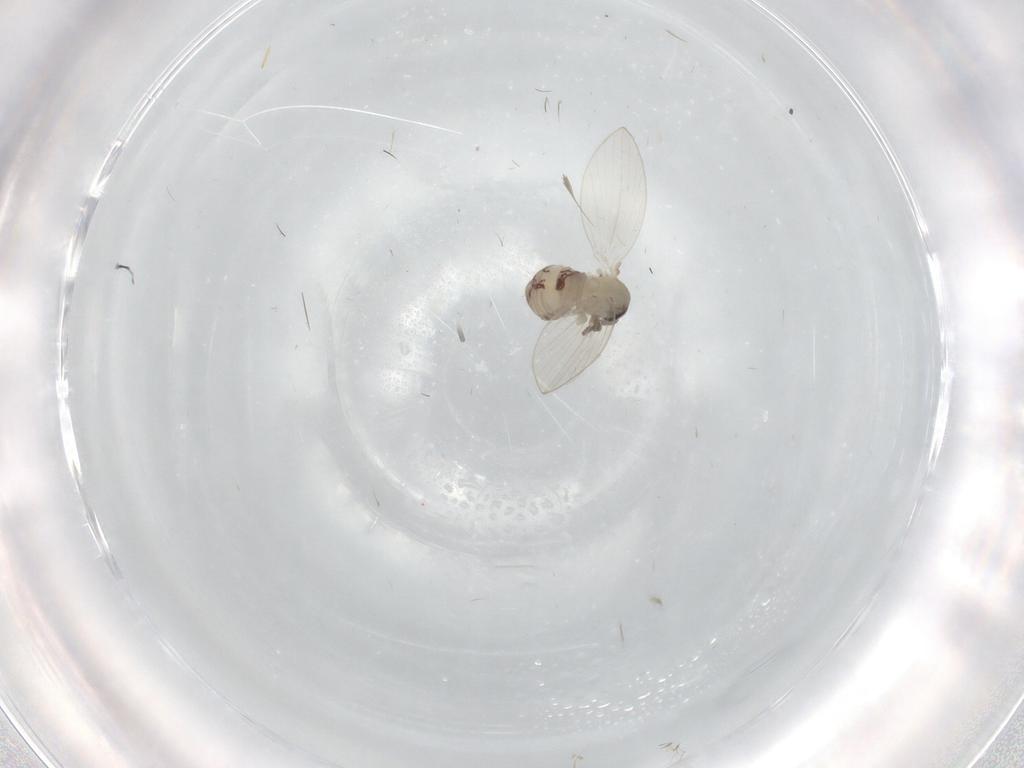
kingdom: Animalia
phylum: Arthropoda
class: Insecta
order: Diptera
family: Psychodidae
